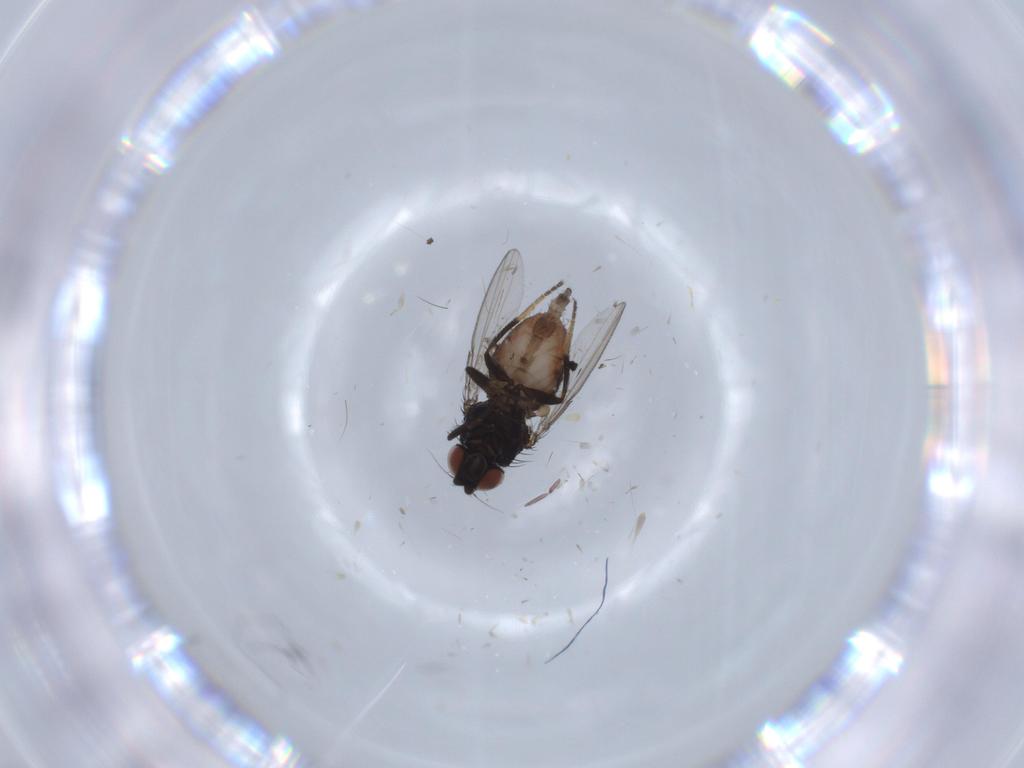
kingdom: Animalia
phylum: Arthropoda
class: Insecta
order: Diptera
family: Milichiidae
